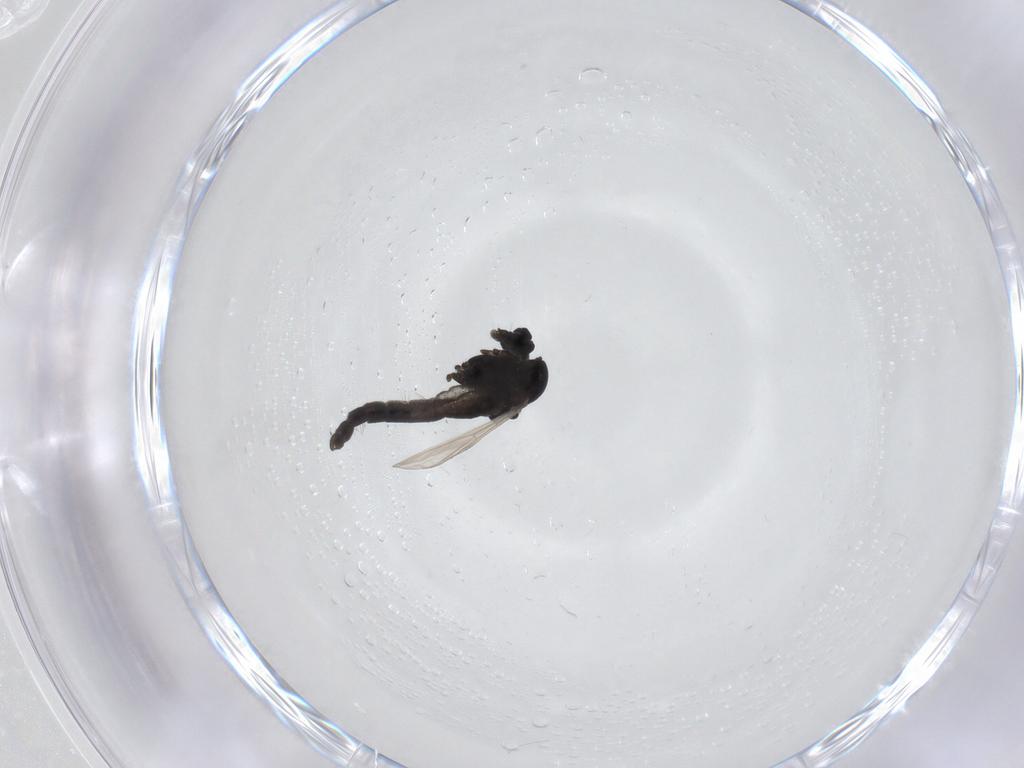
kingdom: Animalia
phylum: Arthropoda
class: Insecta
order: Diptera
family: Chironomidae
